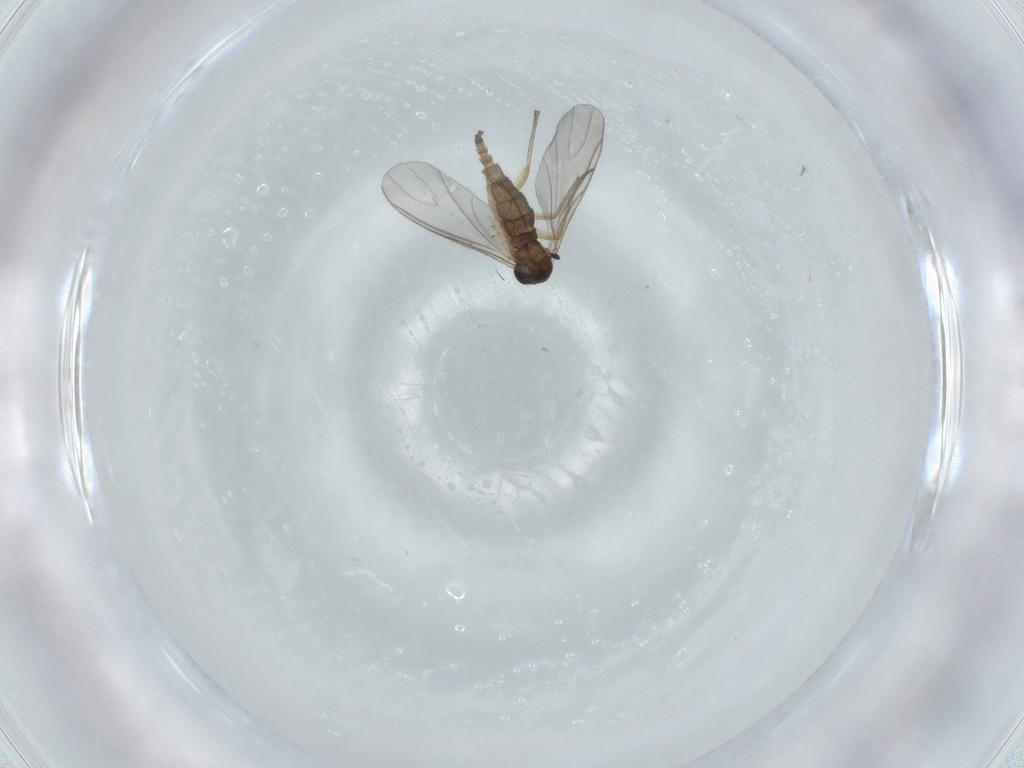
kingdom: Animalia
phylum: Arthropoda
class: Insecta
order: Diptera
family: Sciaridae
